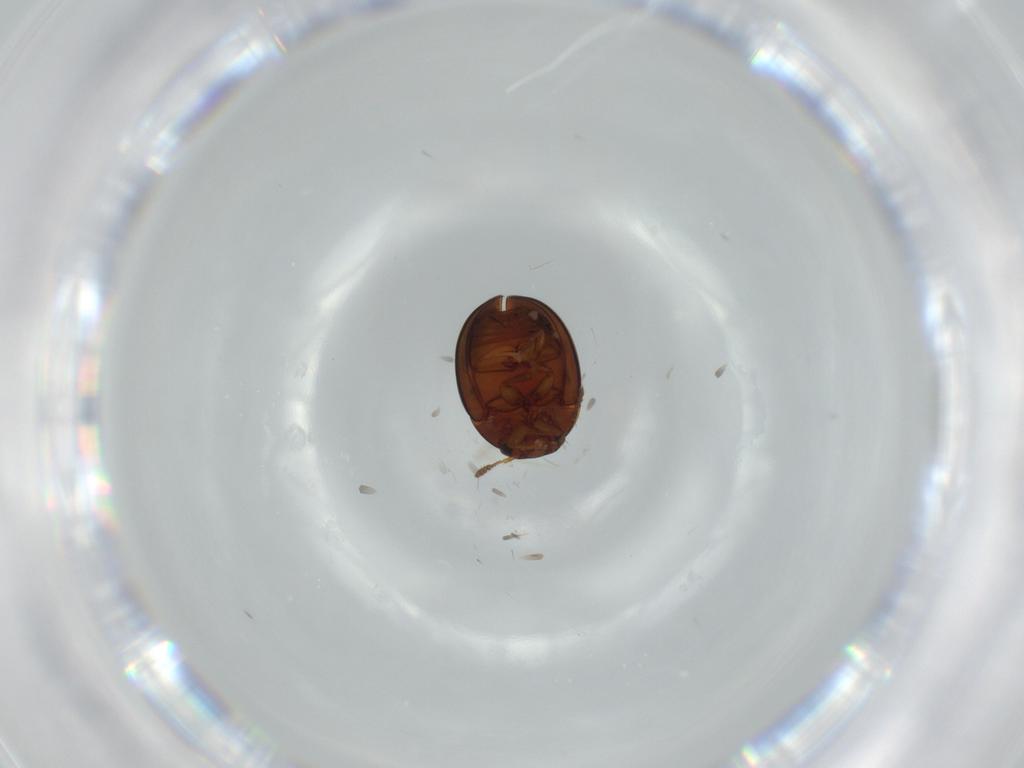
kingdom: Animalia
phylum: Arthropoda
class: Insecta
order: Coleoptera
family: Leiodidae
